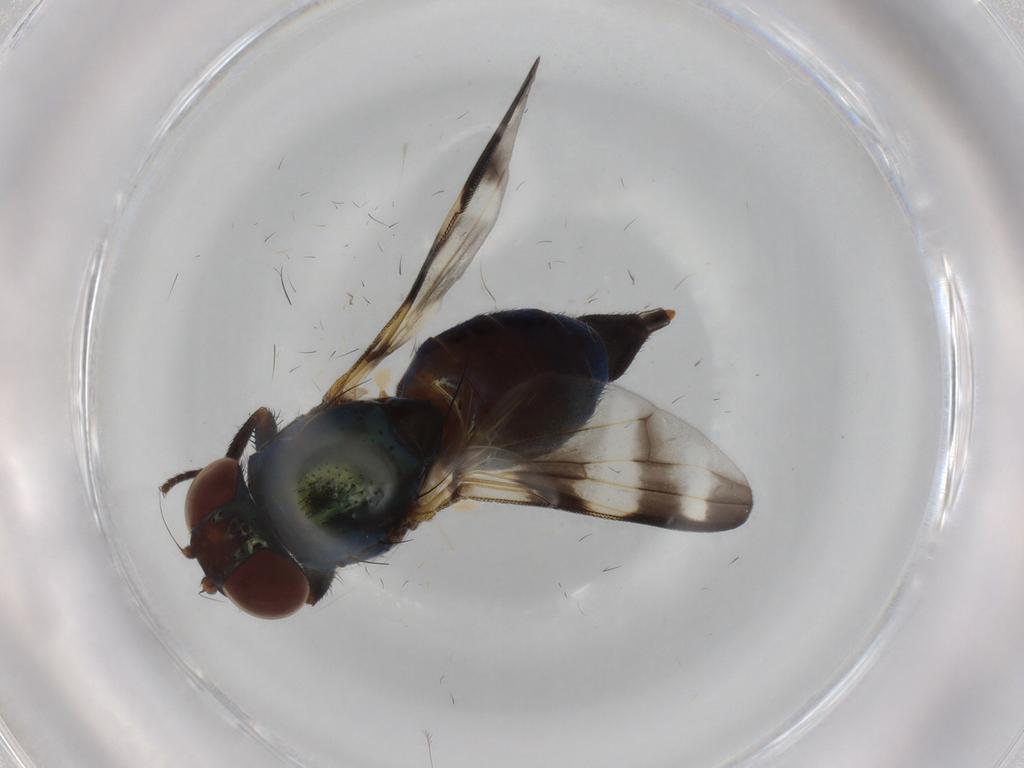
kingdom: Animalia
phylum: Arthropoda
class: Insecta
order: Diptera
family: Ulidiidae
